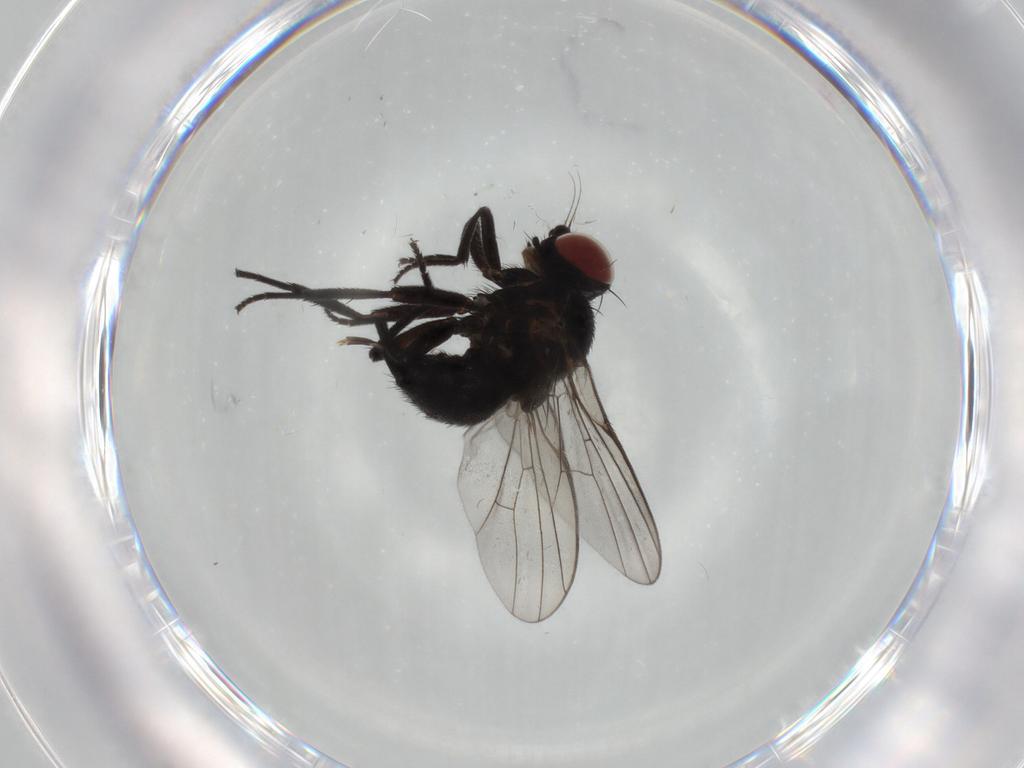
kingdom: Animalia
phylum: Arthropoda
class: Insecta
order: Diptera
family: Agromyzidae
